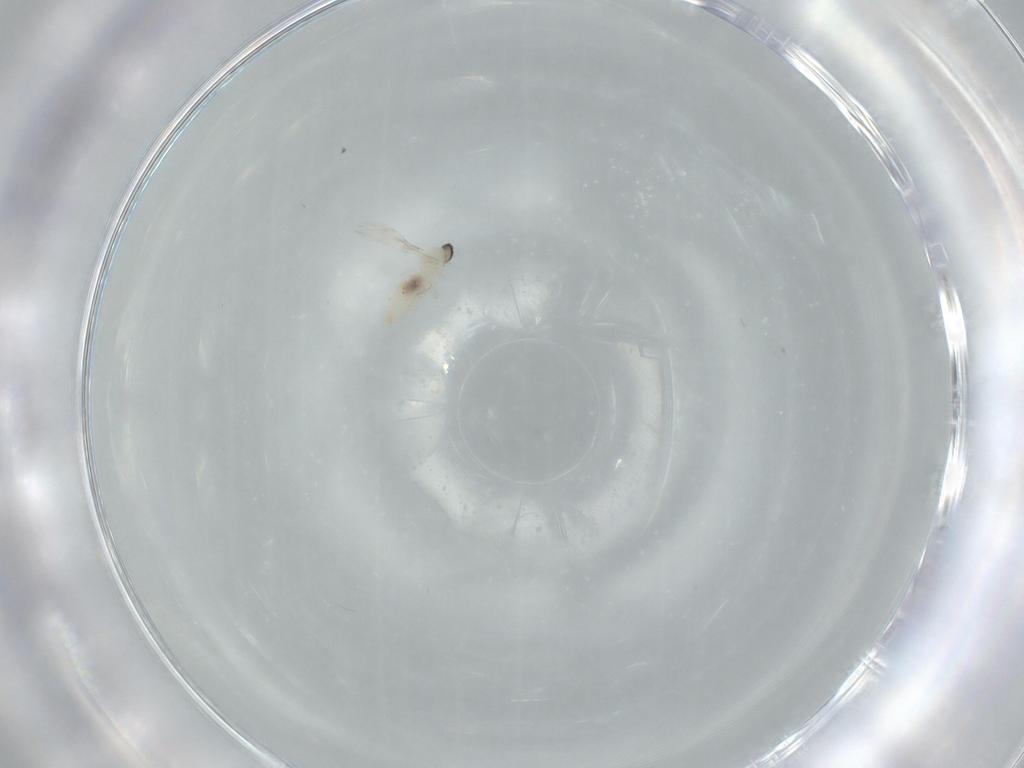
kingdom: Animalia
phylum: Arthropoda
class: Insecta
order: Diptera
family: Cecidomyiidae
